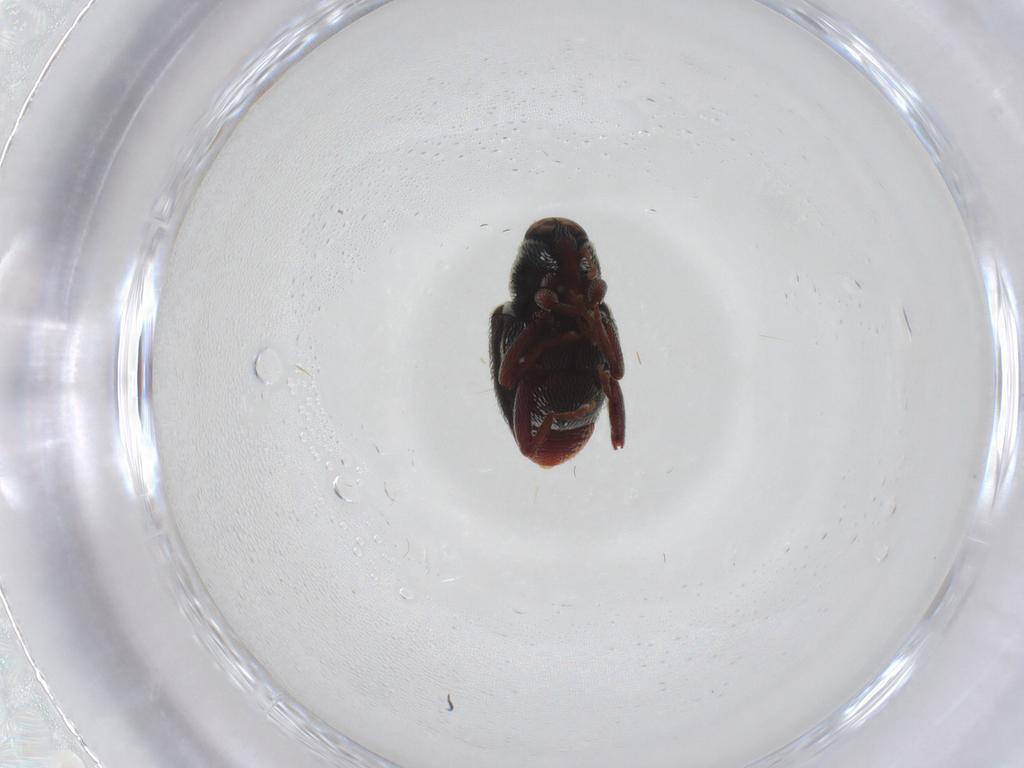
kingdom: Animalia
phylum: Arthropoda
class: Insecta
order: Coleoptera
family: Curculionidae
